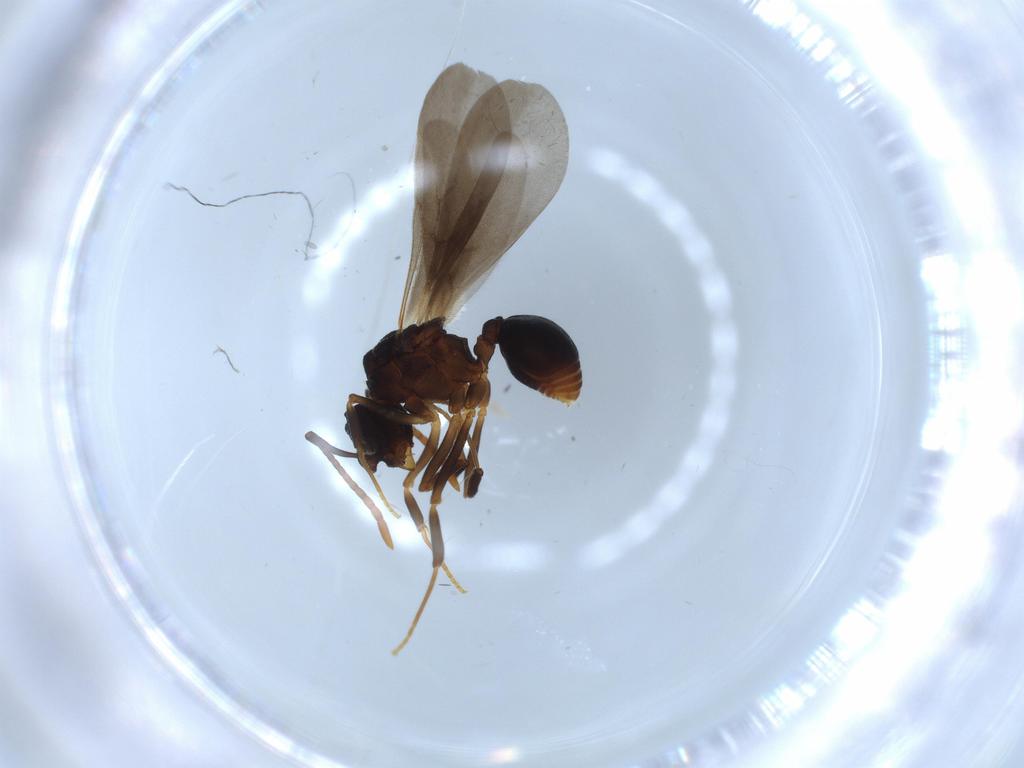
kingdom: Animalia
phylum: Arthropoda
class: Insecta
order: Hymenoptera
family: Formicidae
